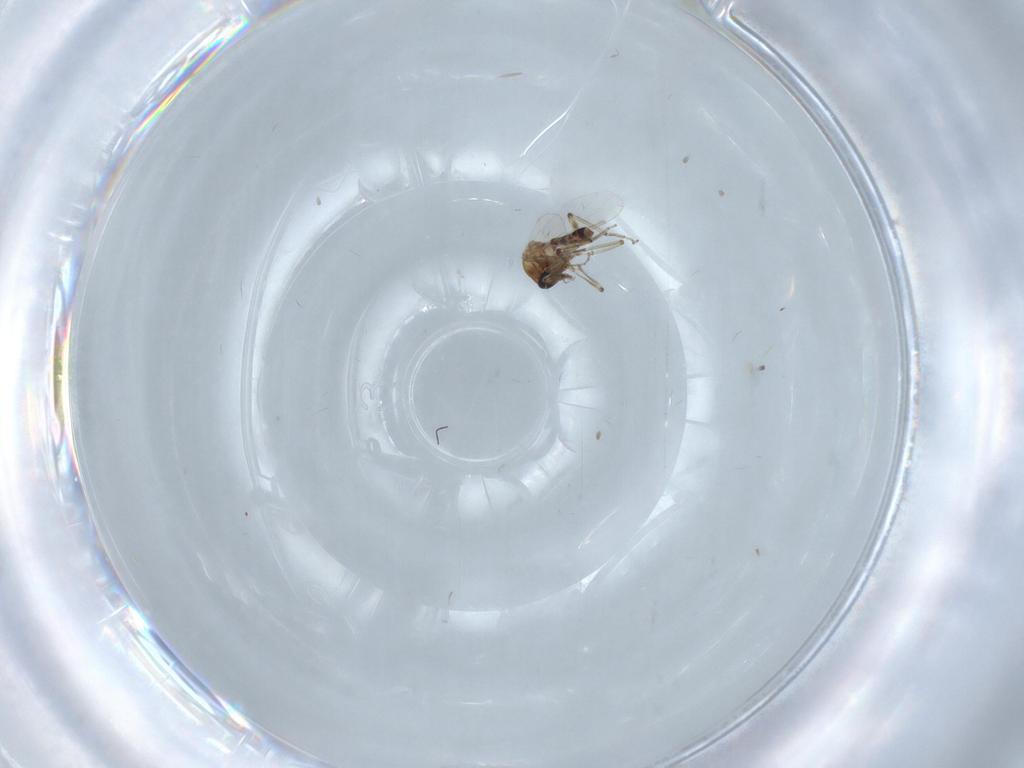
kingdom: Animalia
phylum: Arthropoda
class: Insecta
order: Diptera
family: Ceratopogonidae
